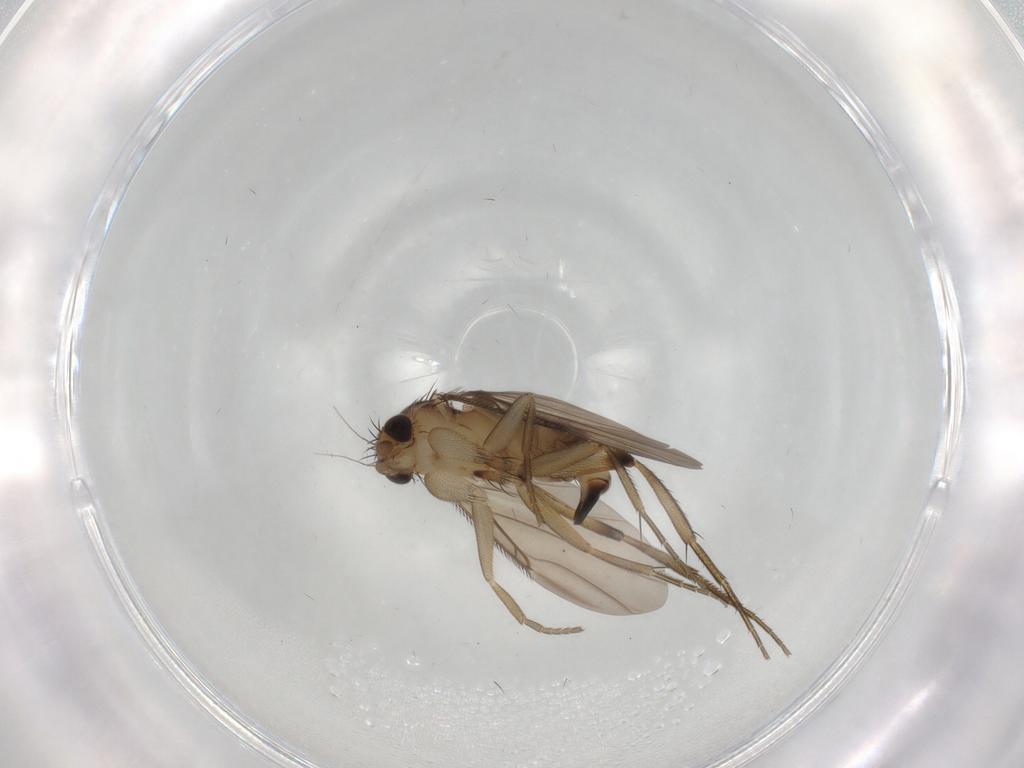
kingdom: Animalia
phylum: Arthropoda
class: Insecta
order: Diptera
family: Phoridae
